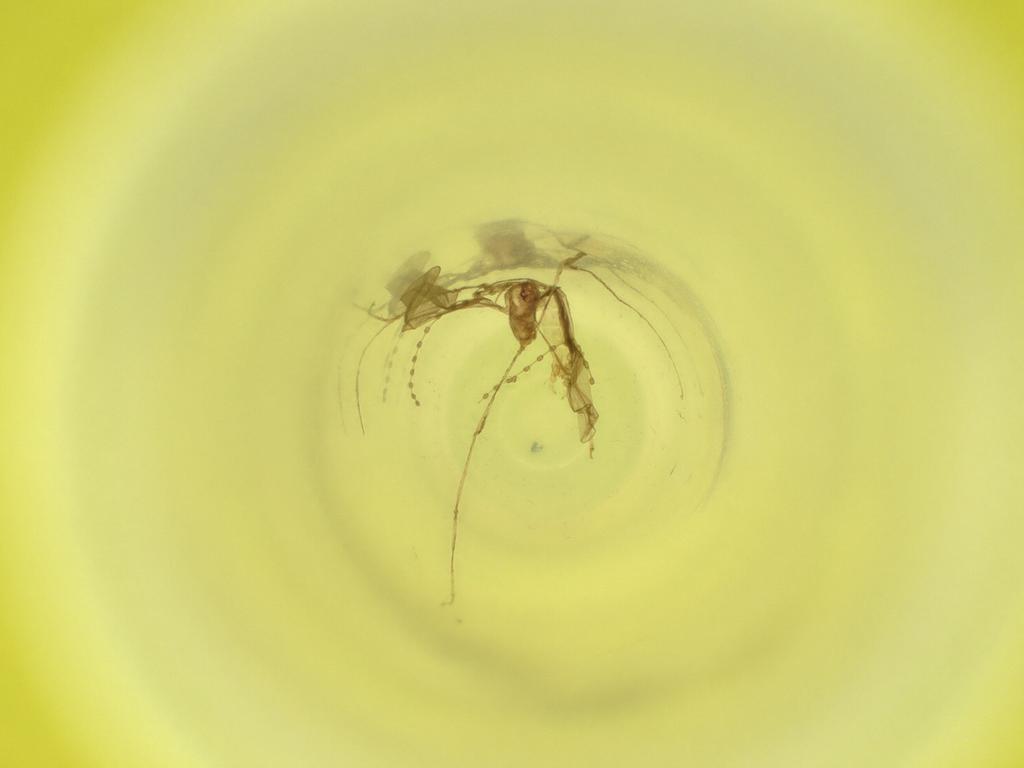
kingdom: Animalia
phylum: Arthropoda
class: Insecta
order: Diptera
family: Cecidomyiidae
